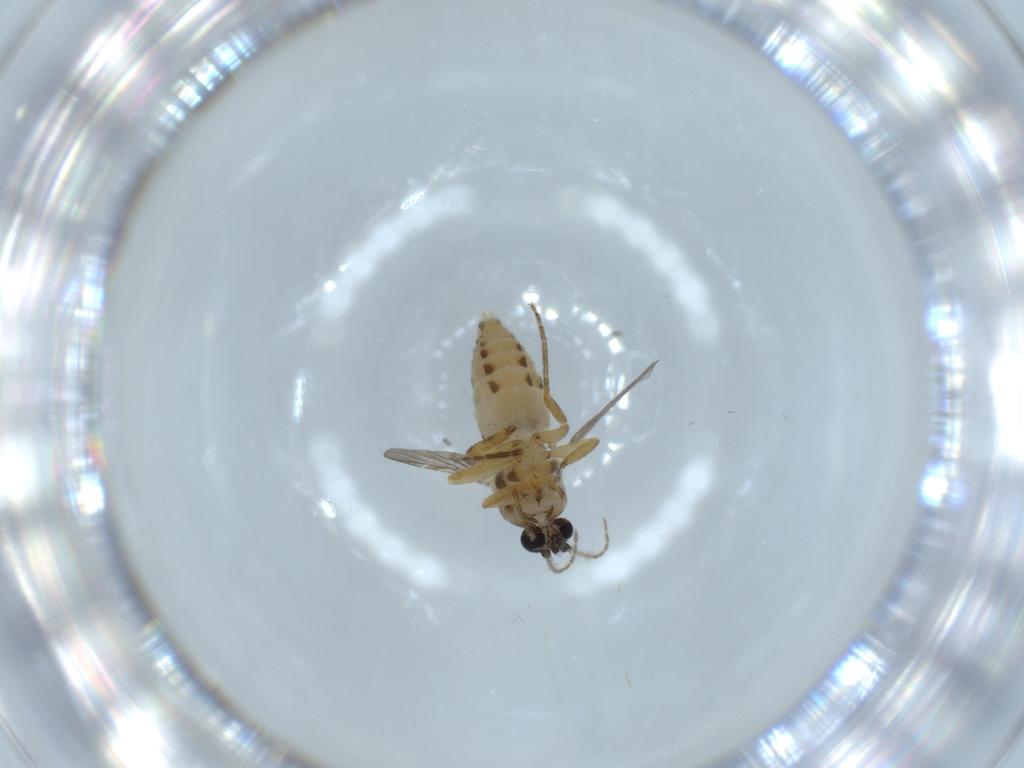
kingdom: Animalia
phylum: Arthropoda
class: Insecta
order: Diptera
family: Ceratopogonidae
